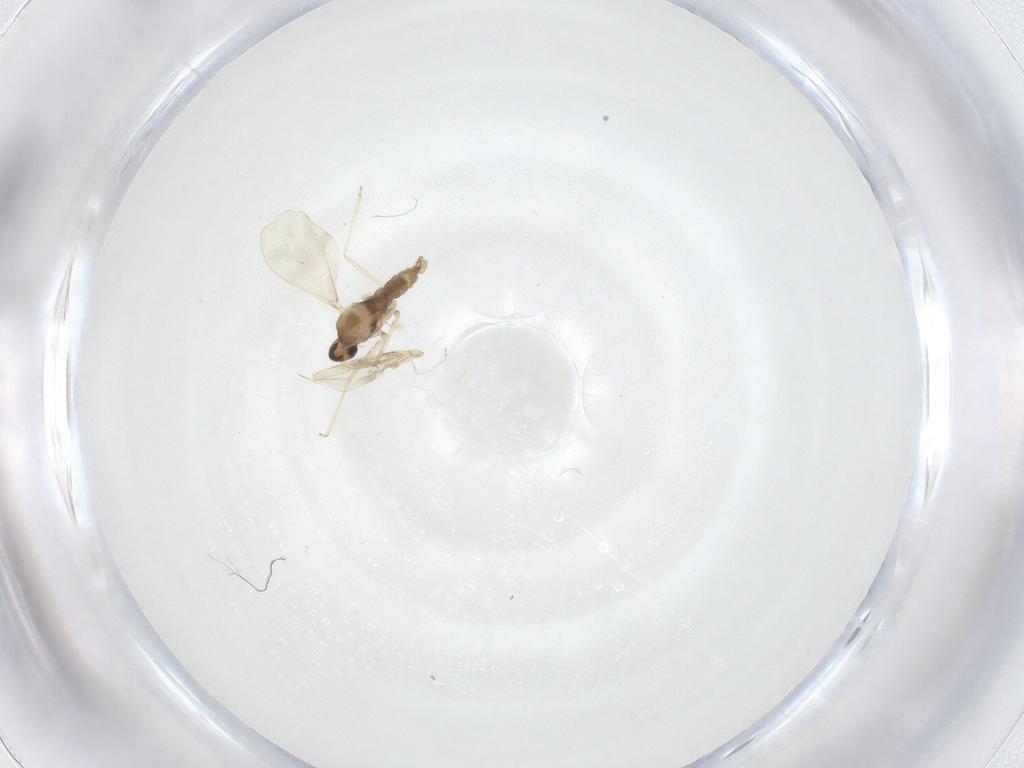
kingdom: Animalia
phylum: Arthropoda
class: Insecta
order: Diptera
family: Cecidomyiidae
